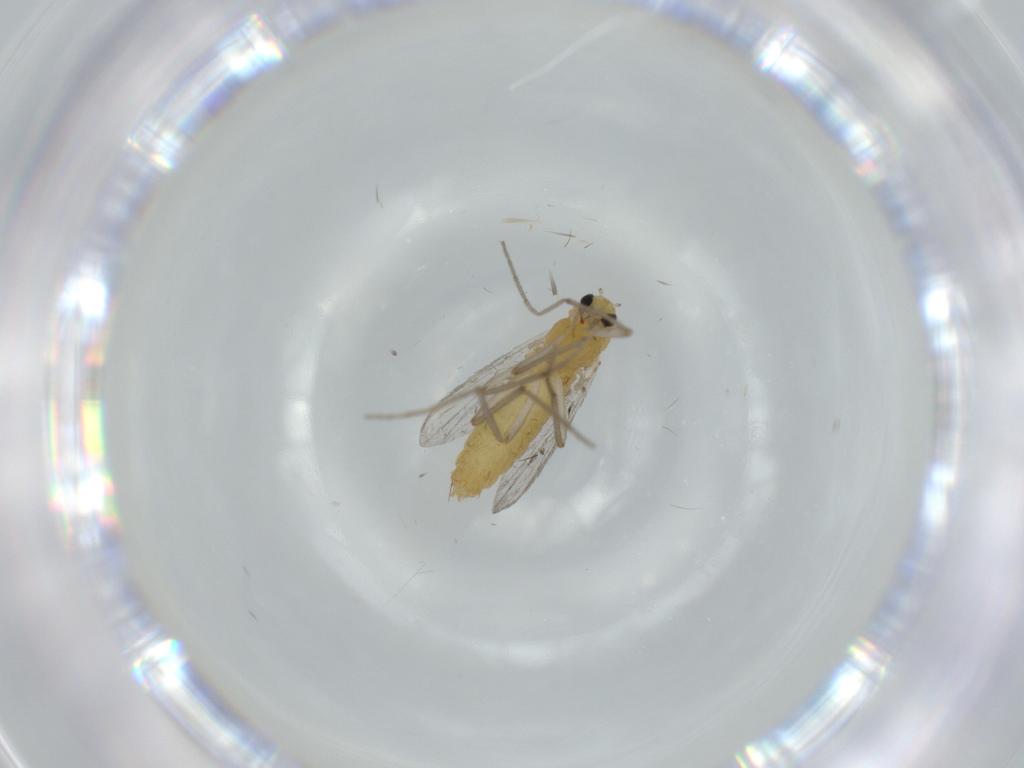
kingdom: Animalia
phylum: Arthropoda
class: Insecta
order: Diptera
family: Chironomidae
